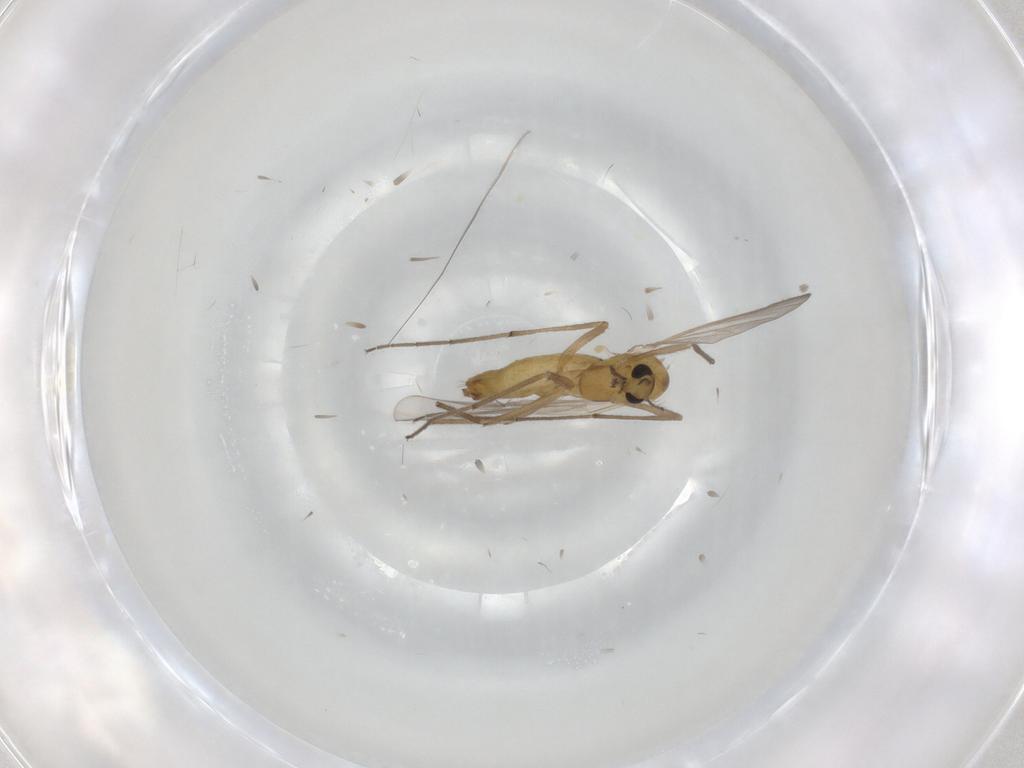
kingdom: Animalia
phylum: Arthropoda
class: Insecta
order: Diptera
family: Chironomidae
